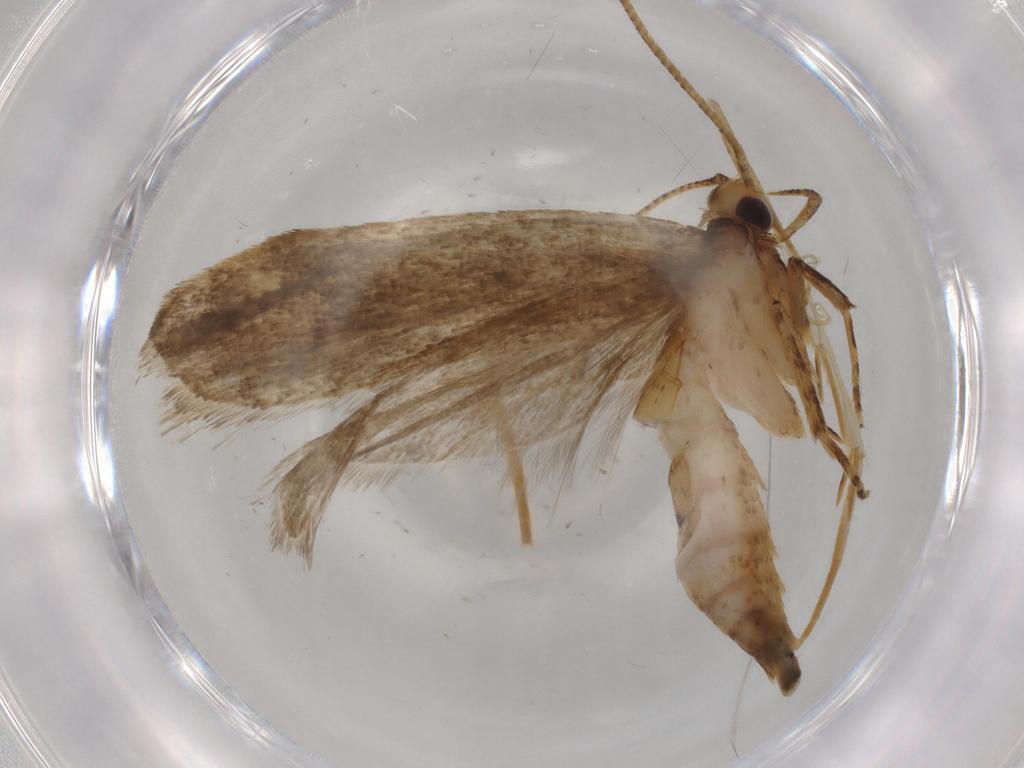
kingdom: Animalia
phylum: Arthropoda
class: Insecta
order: Lepidoptera
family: Autostichidae
